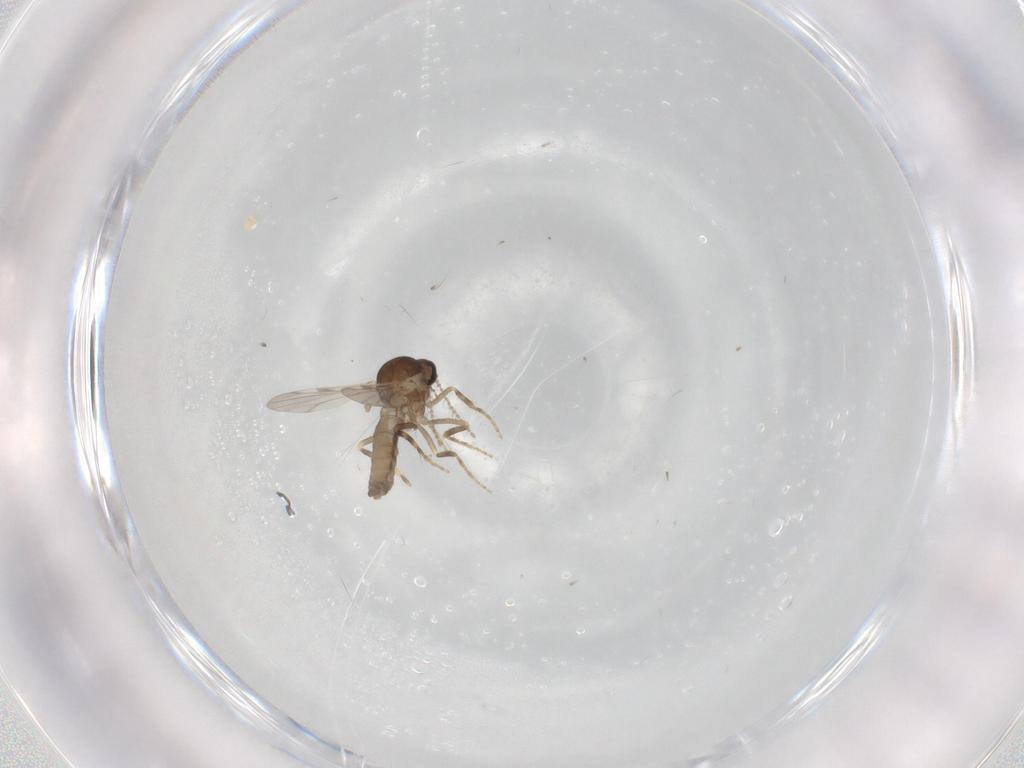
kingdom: Animalia
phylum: Arthropoda
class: Insecta
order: Diptera
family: Ceratopogonidae
